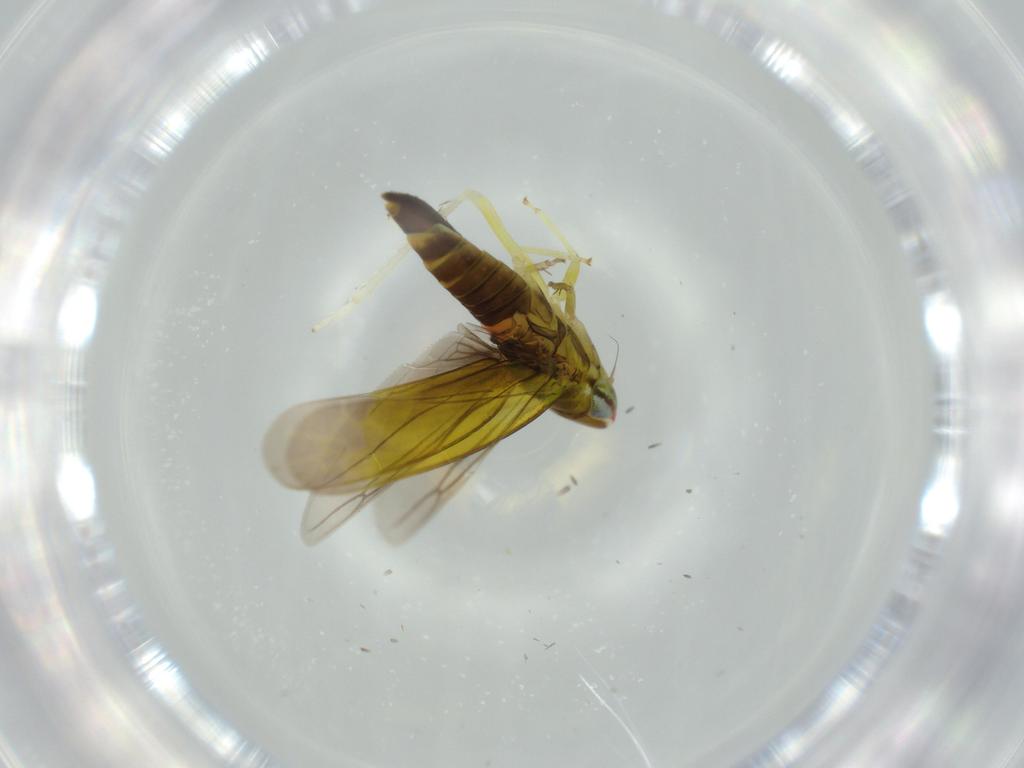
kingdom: Animalia
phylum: Arthropoda
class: Insecta
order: Hemiptera
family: Cicadellidae
